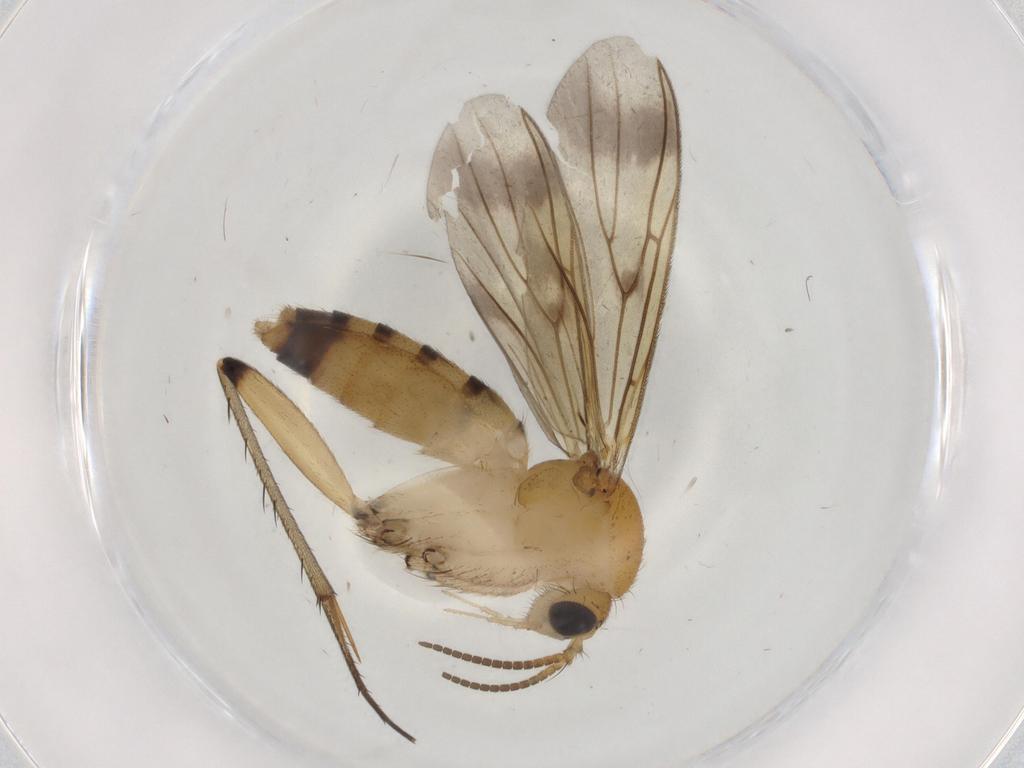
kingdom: Animalia
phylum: Arthropoda
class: Insecta
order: Diptera
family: Mycetophilidae
